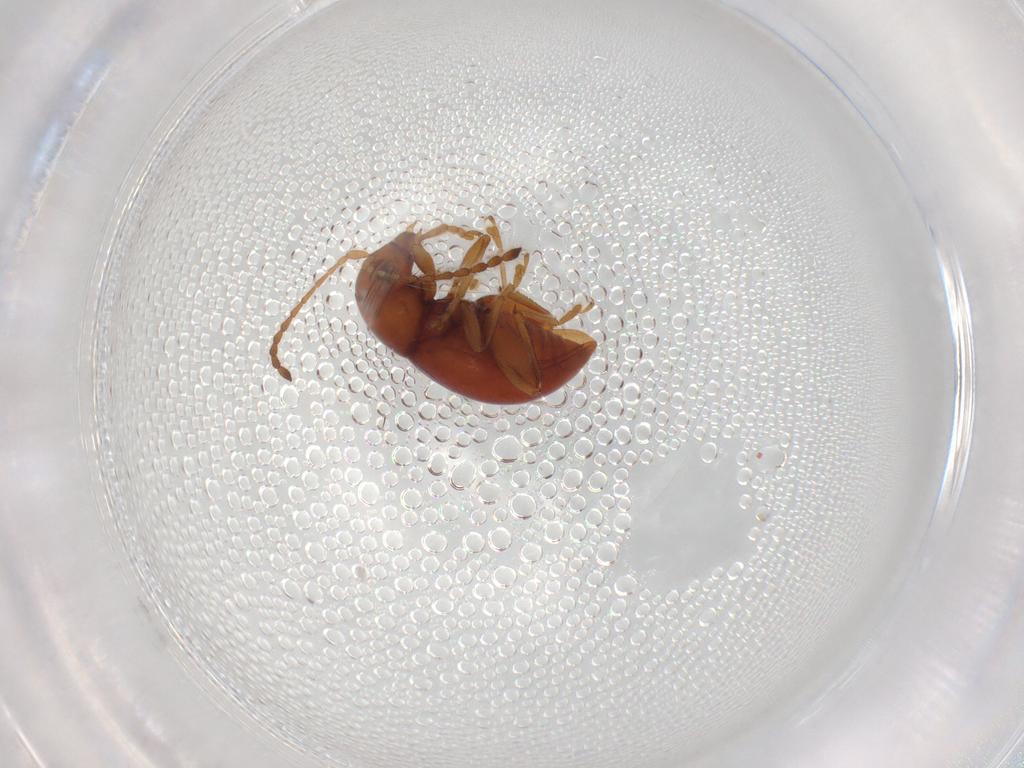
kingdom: Animalia
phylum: Arthropoda
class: Insecta
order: Coleoptera
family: Chrysomelidae
